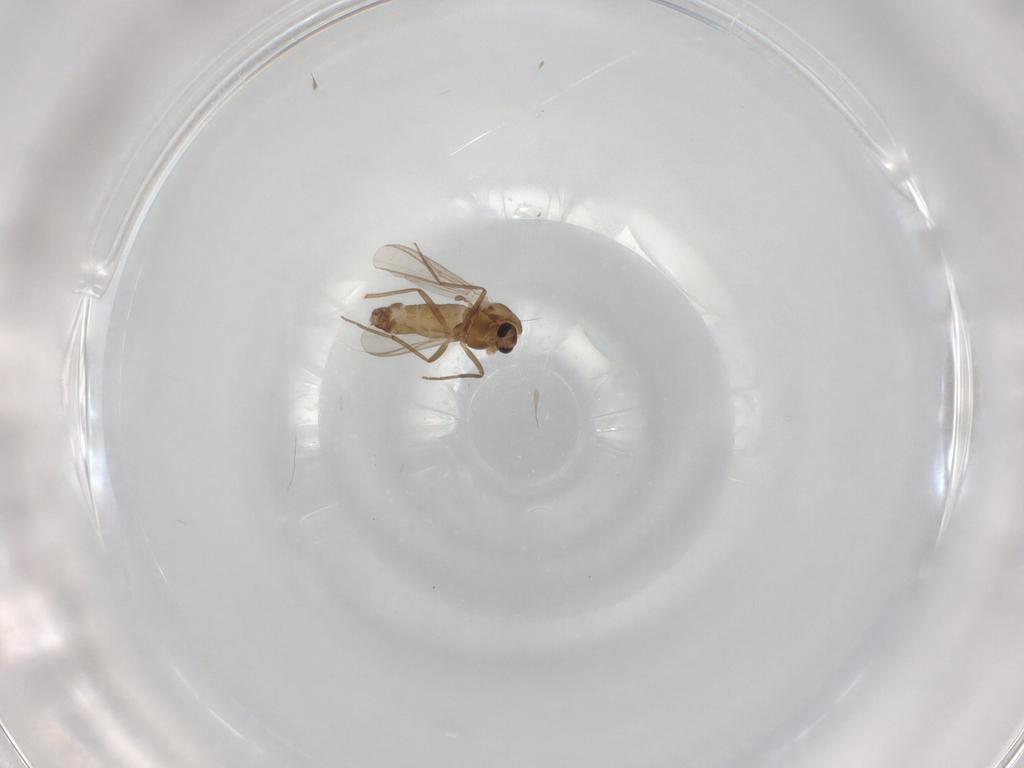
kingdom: Animalia
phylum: Arthropoda
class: Insecta
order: Diptera
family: Chironomidae
